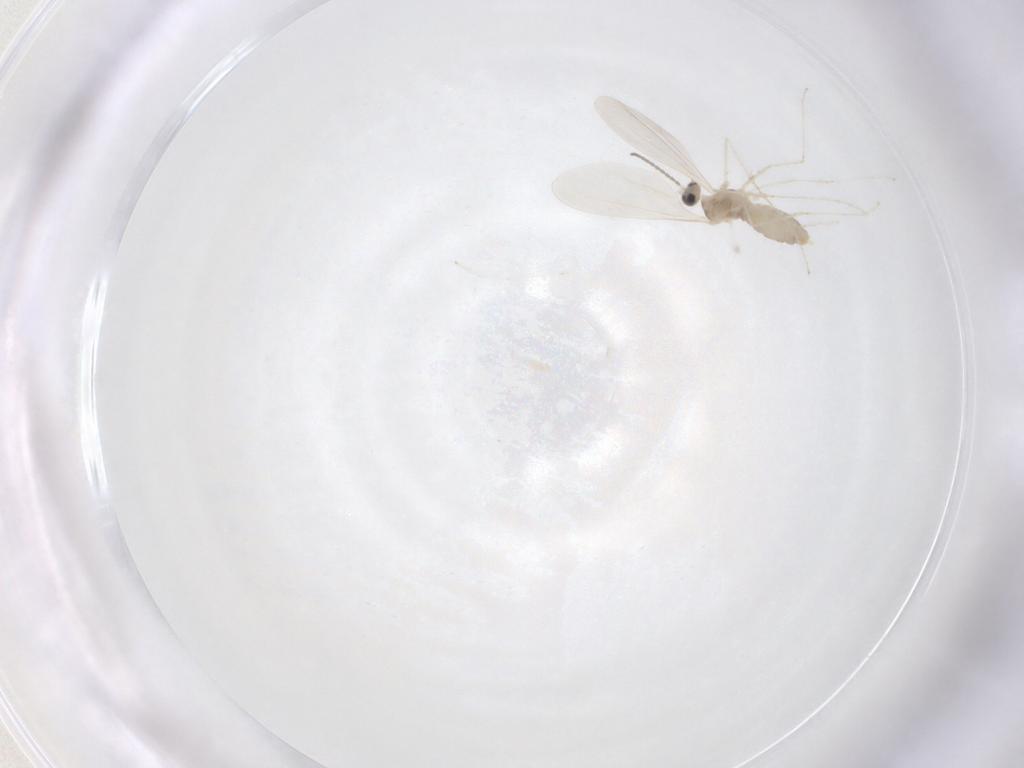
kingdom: Animalia
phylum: Arthropoda
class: Insecta
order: Diptera
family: Cecidomyiidae
